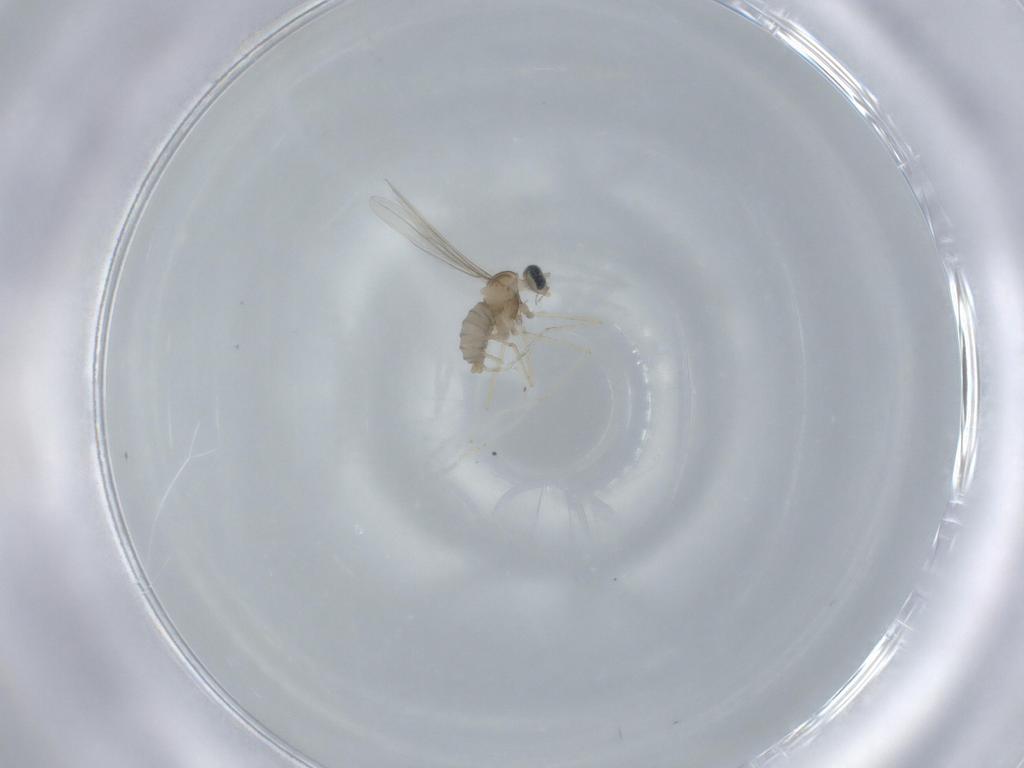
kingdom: Animalia
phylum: Arthropoda
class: Insecta
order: Diptera
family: Cecidomyiidae
